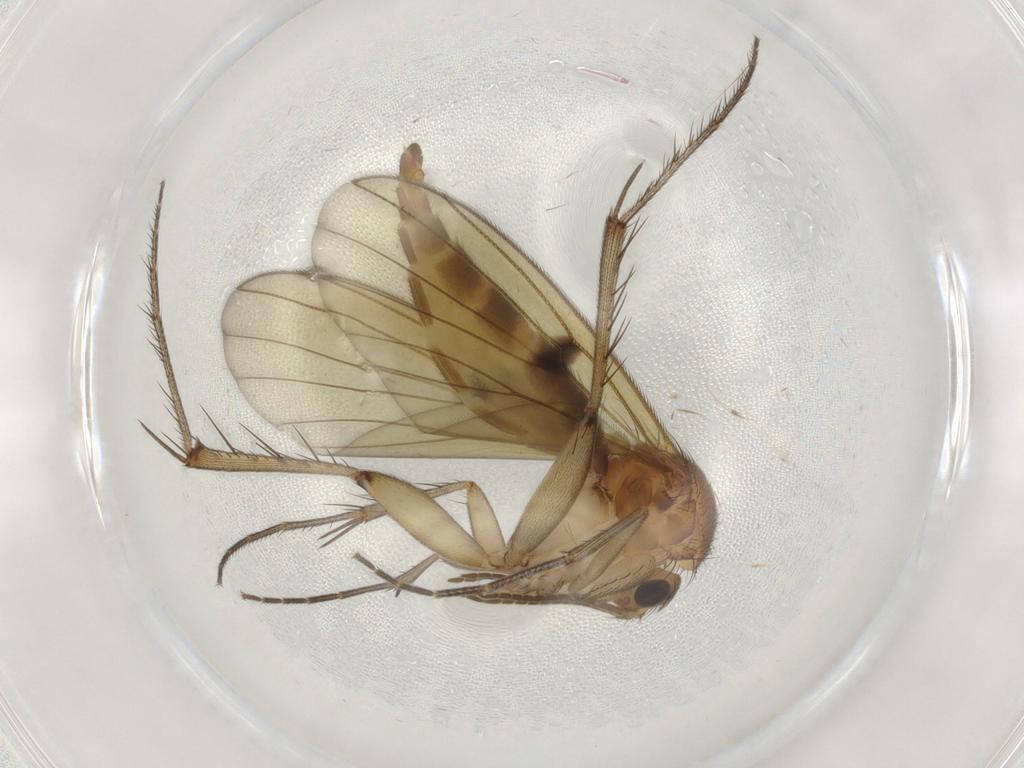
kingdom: Animalia
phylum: Arthropoda
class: Insecta
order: Diptera
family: Mycetophilidae
